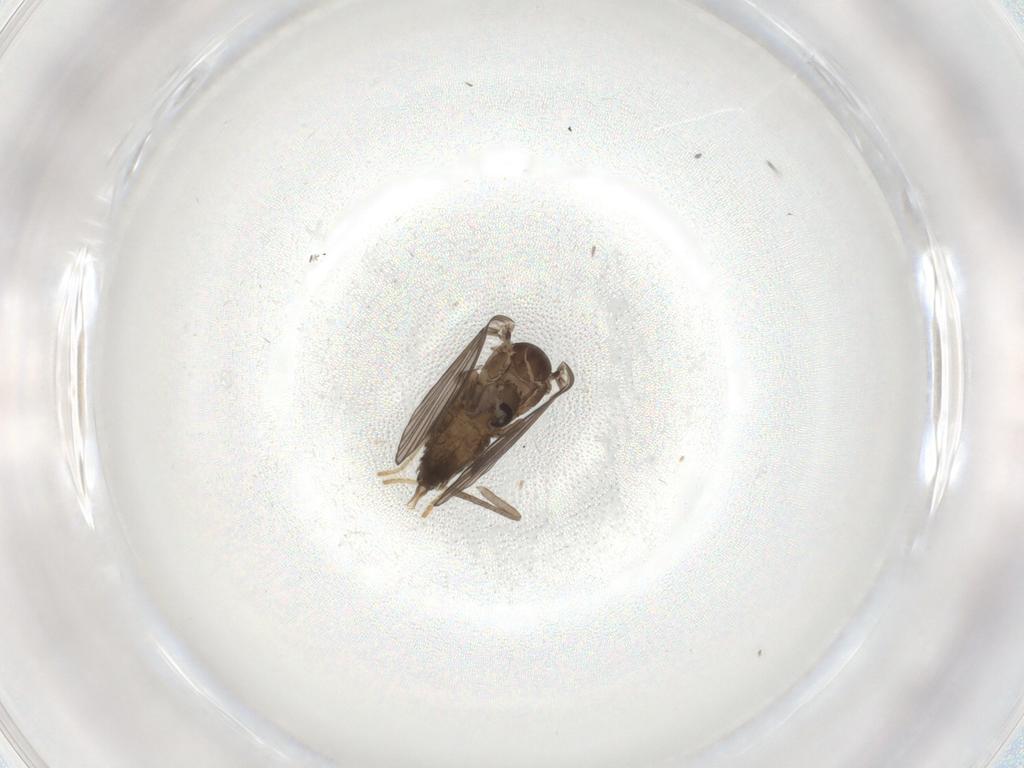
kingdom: Animalia
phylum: Arthropoda
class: Insecta
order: Diptera
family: Psychodidae
